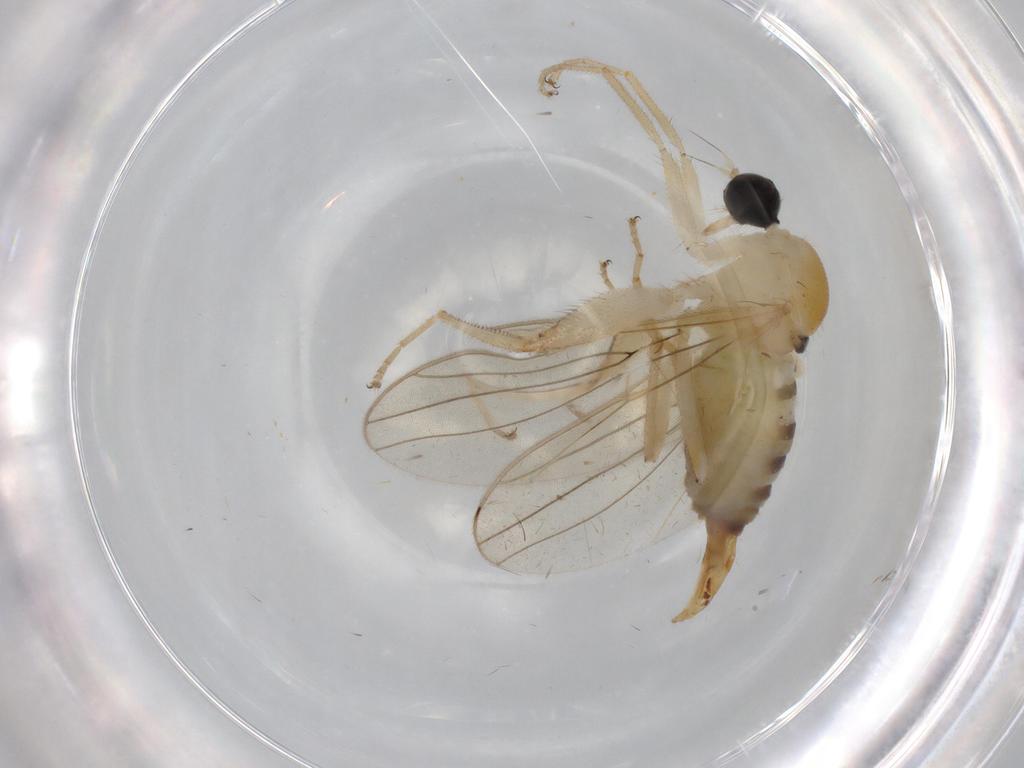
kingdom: Animalia
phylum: Arthropoda
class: Insecta
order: Diptera
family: Hybotidae
